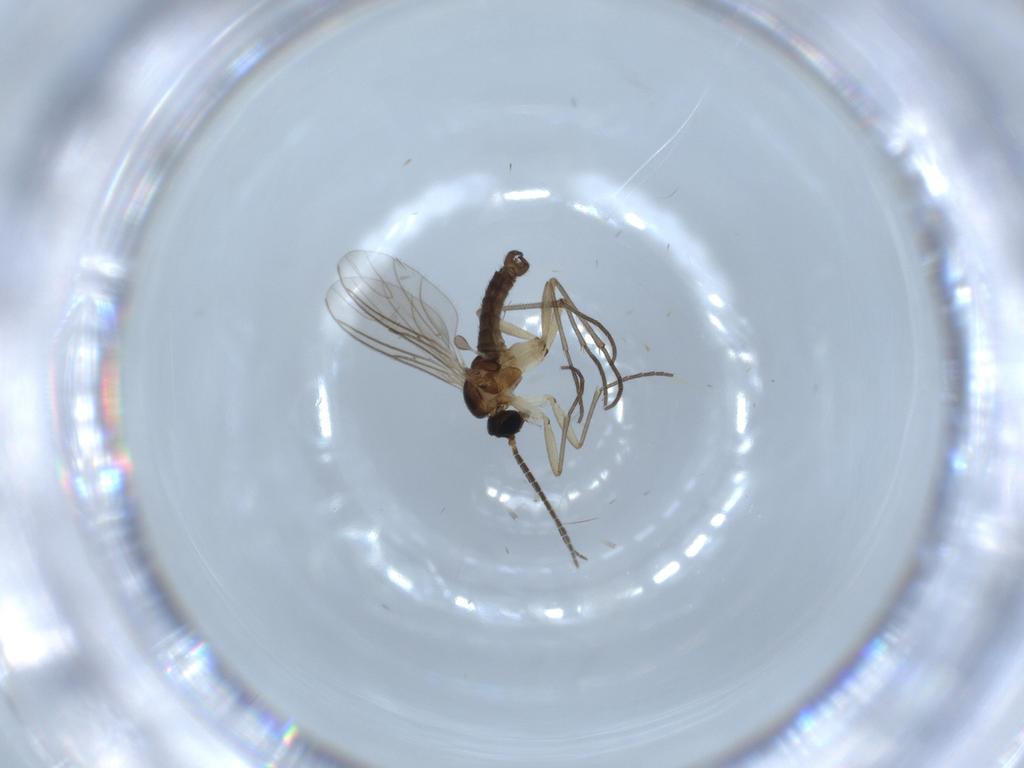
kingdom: Animalia
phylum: Arthropoda
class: Insecta
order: Diptera
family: Sciaridae
